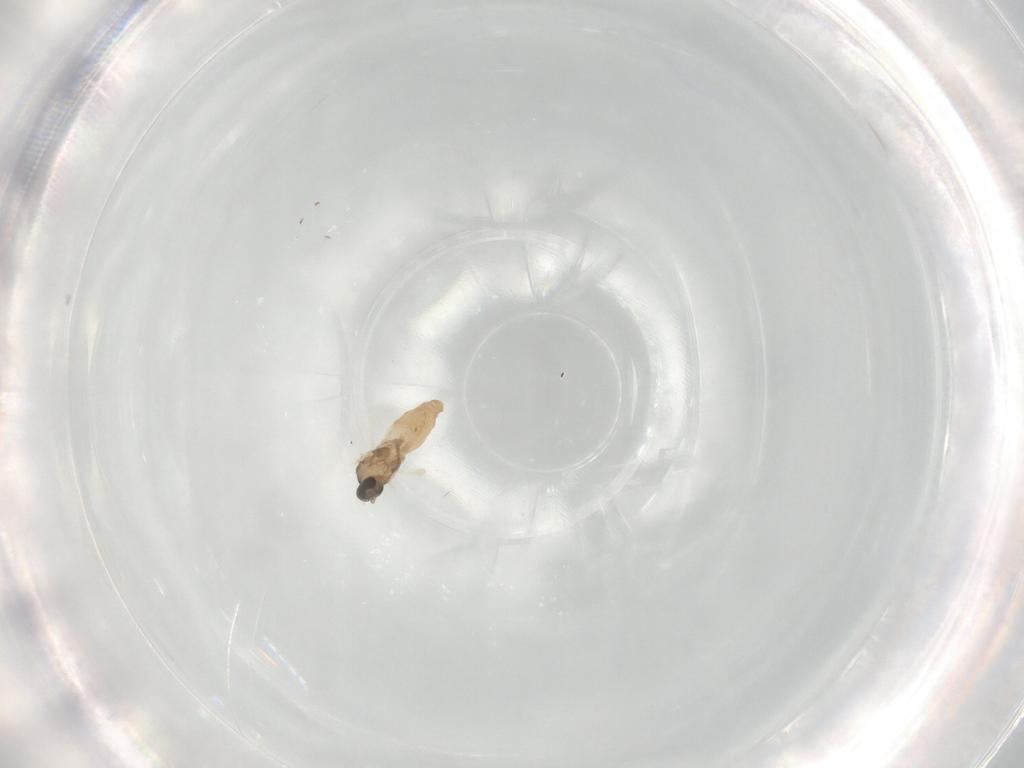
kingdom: Animalia
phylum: Arthropoda
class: Insecta
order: Diptera
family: Cecidomyiidae
